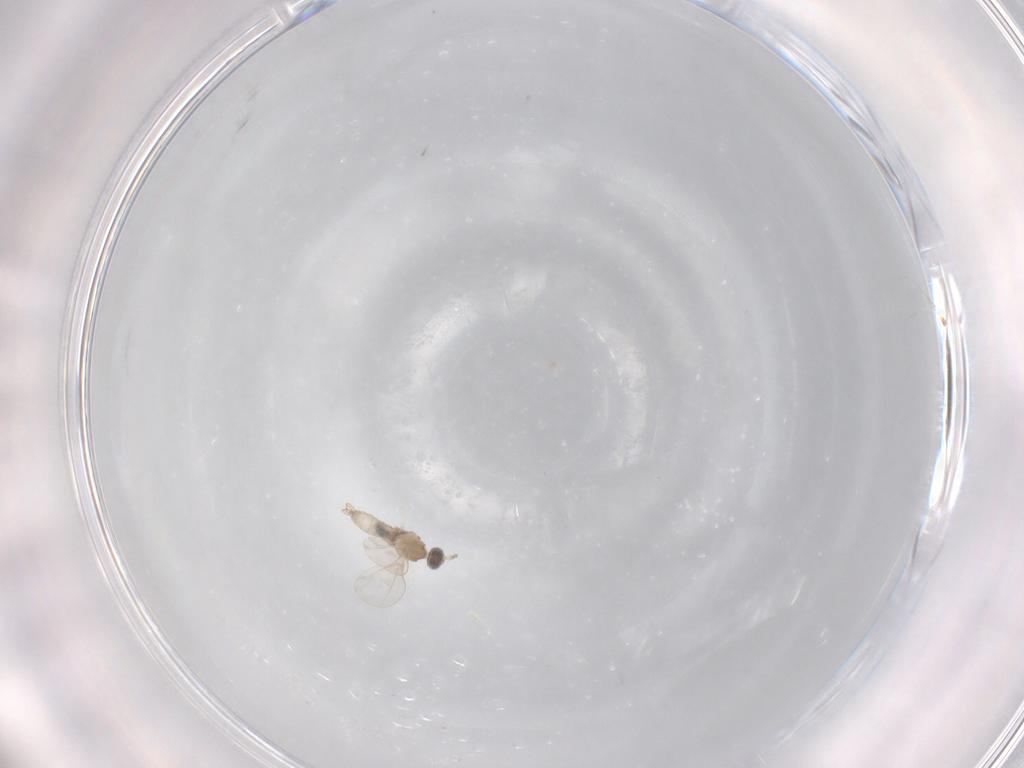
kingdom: Animalia
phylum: Arthropoda
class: Insecta
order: Diptera
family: Cecidomyiidae
